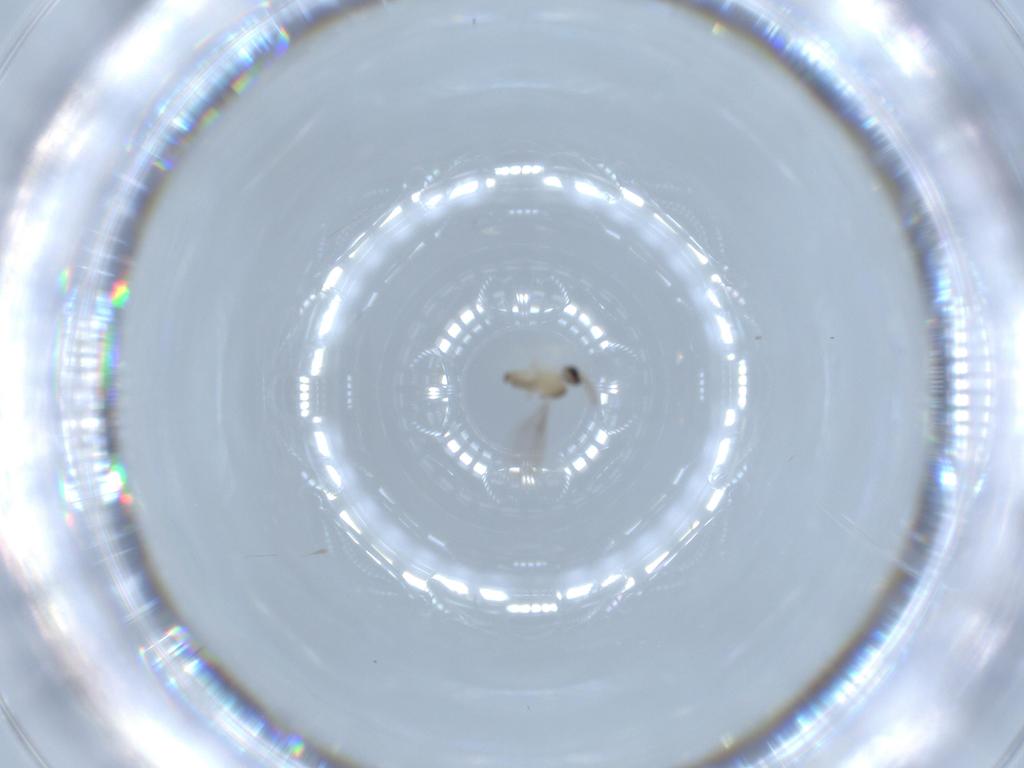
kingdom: Animalia
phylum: Arthropoda
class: Insecta
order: Diptera
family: Cecidomyiidae
